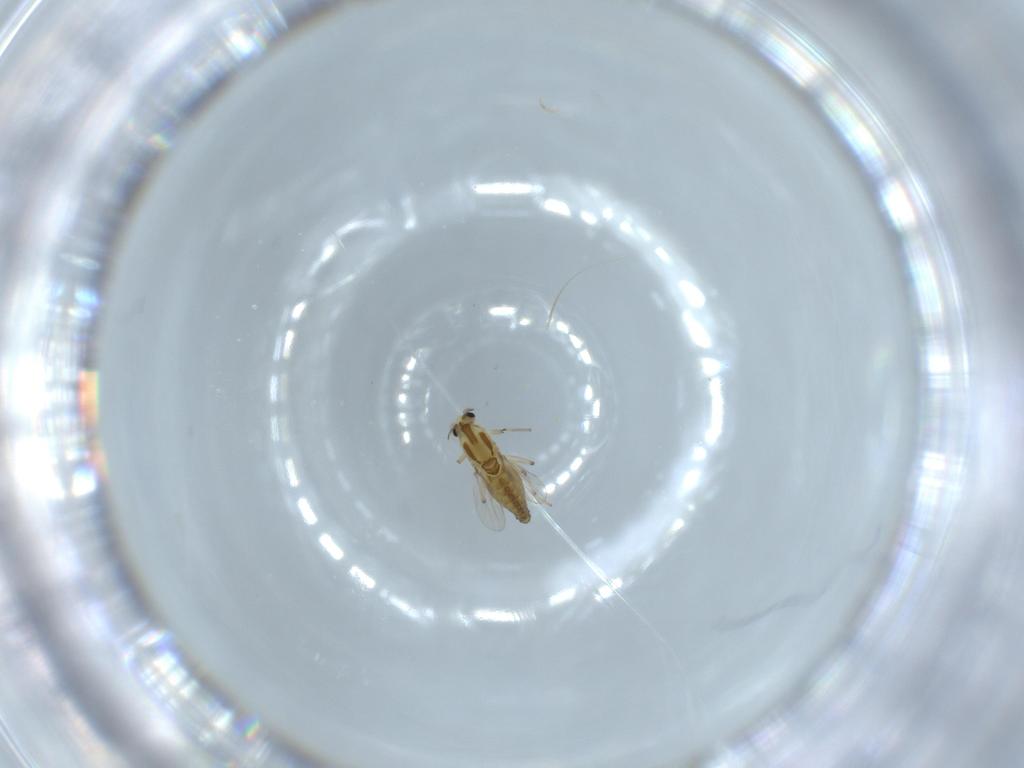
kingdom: Animalia
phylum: Arthropoda
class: Insecta
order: Diptera
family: Chironomidae
